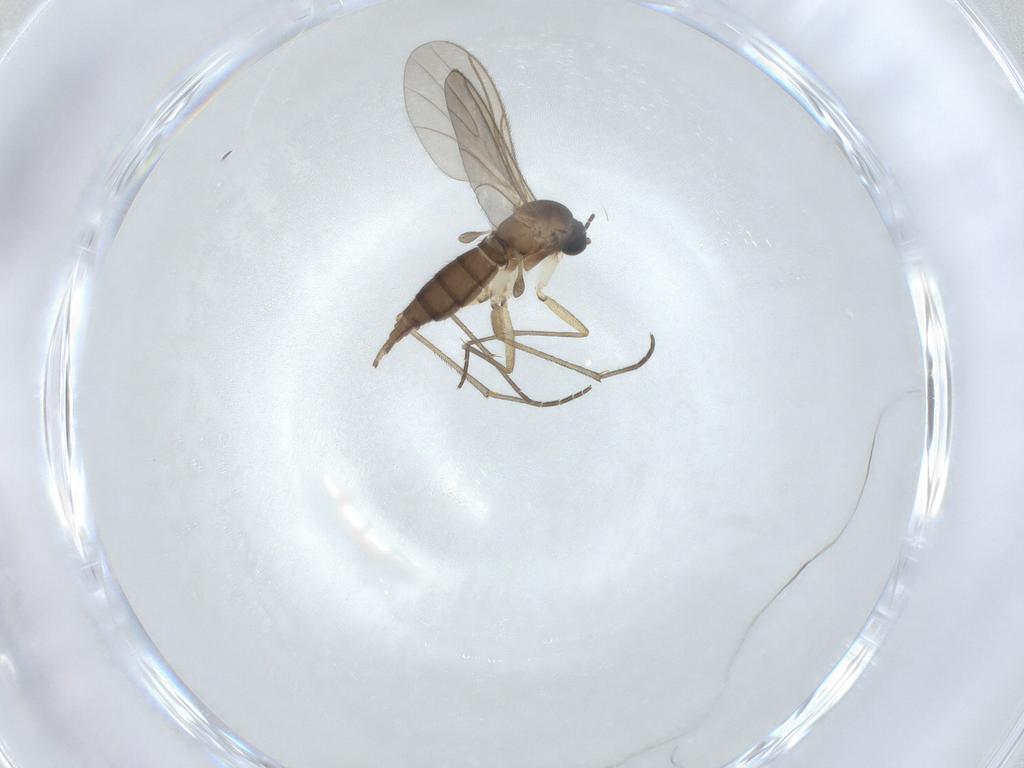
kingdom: Animalia
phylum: Arthropoda
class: Insecta
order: Diptera
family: Sciaridae
